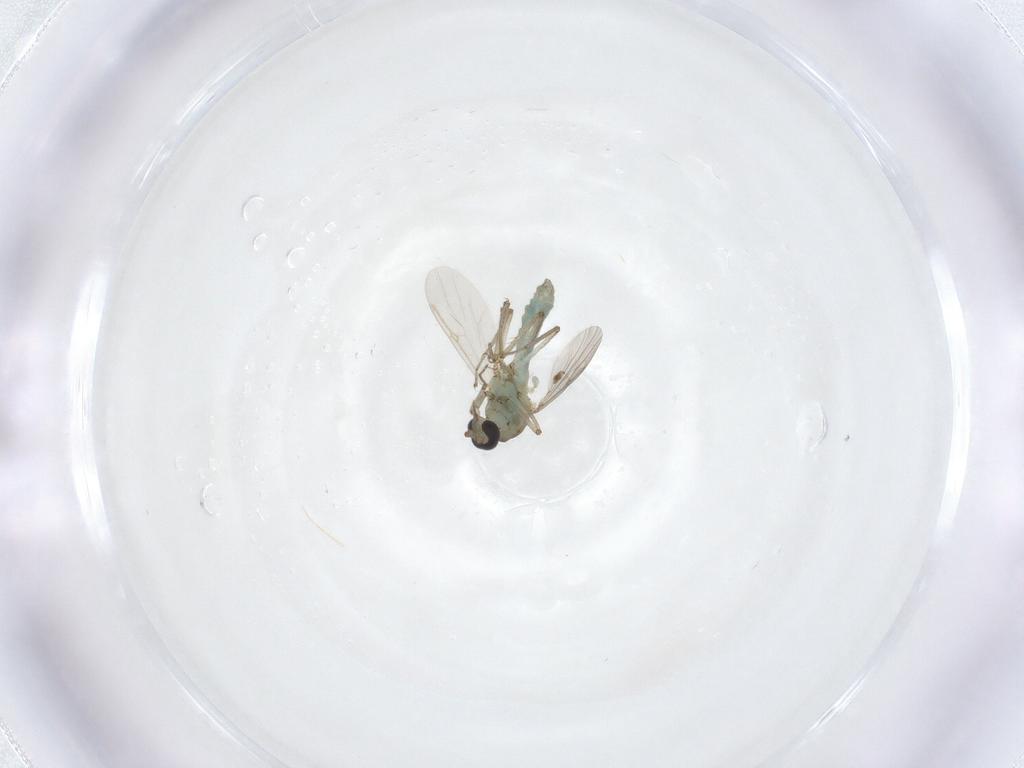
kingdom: Animalia
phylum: Arthropoda
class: Insecta
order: Diptera
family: Ceratopogonidae
